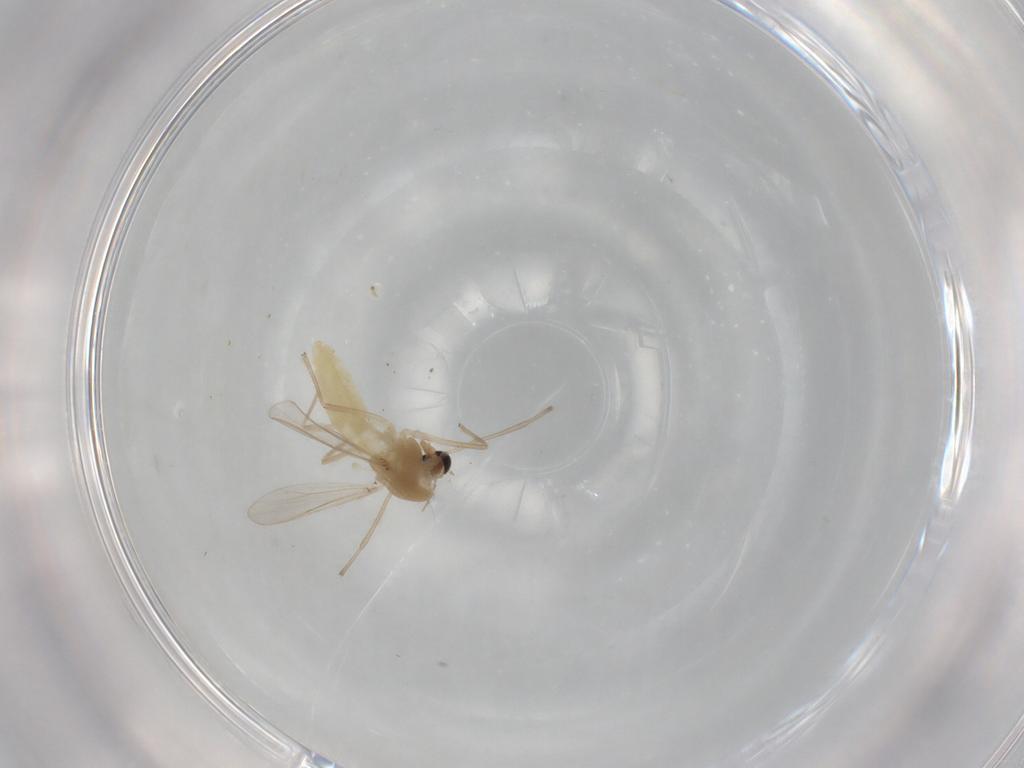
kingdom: Animalia
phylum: Arthropoda
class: Insecta
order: Diptera
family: Chironomidae
